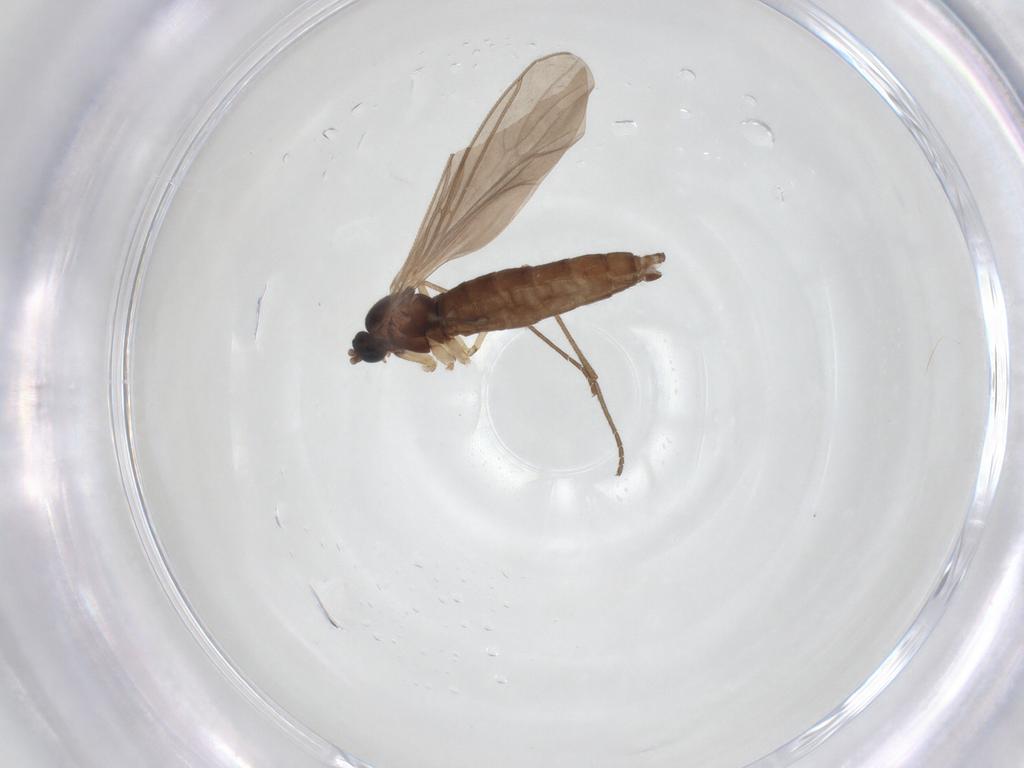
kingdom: Animalia
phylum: Arthropoda
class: Insecta
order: Diptera
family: Sciaridae
